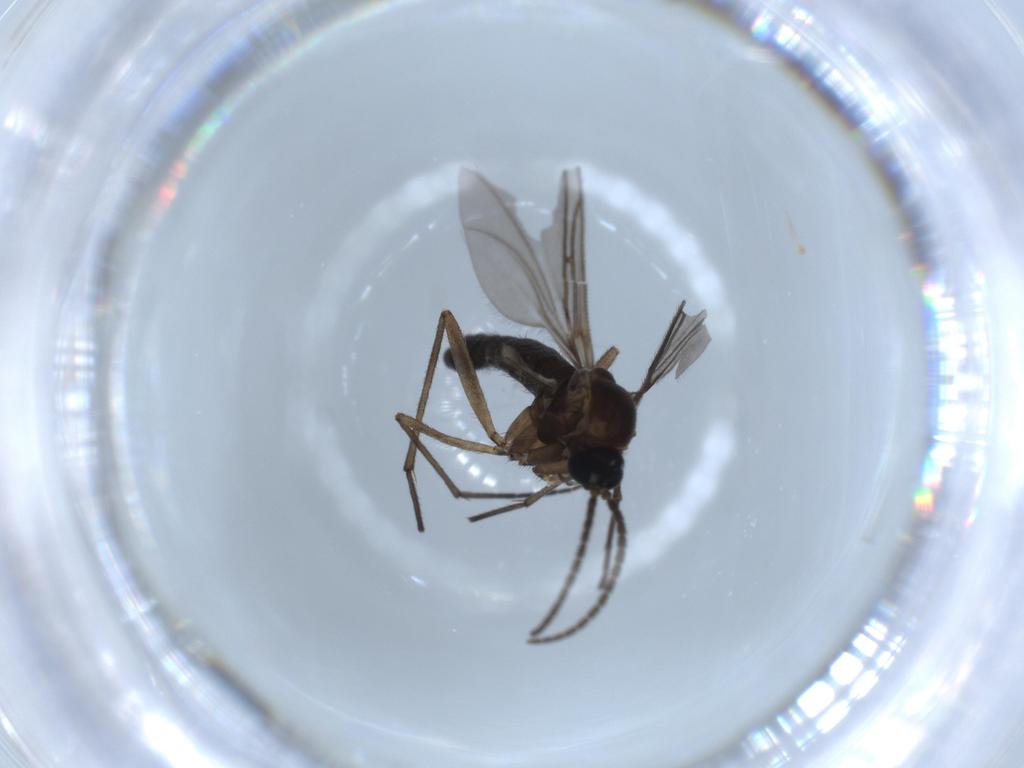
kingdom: Animalia
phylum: Arthropoda
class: Insecta
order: Diptera
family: Sciaridae
